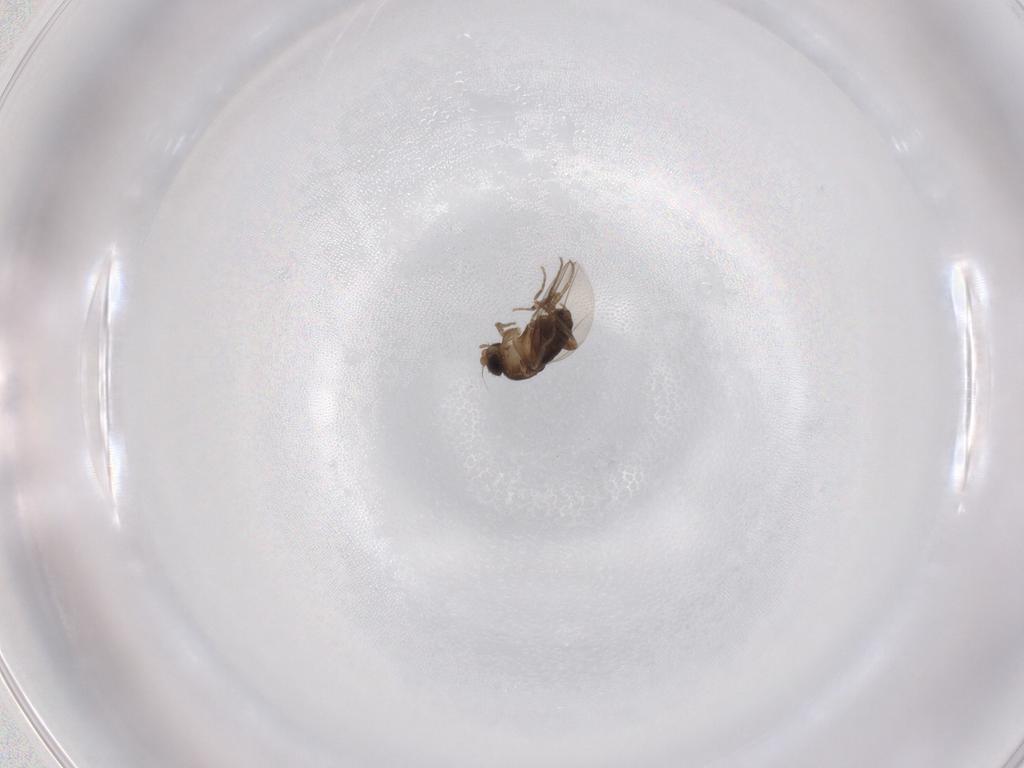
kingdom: Animalia
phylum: Arthropoda
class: Insecta
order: Diptera
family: Phoridae
